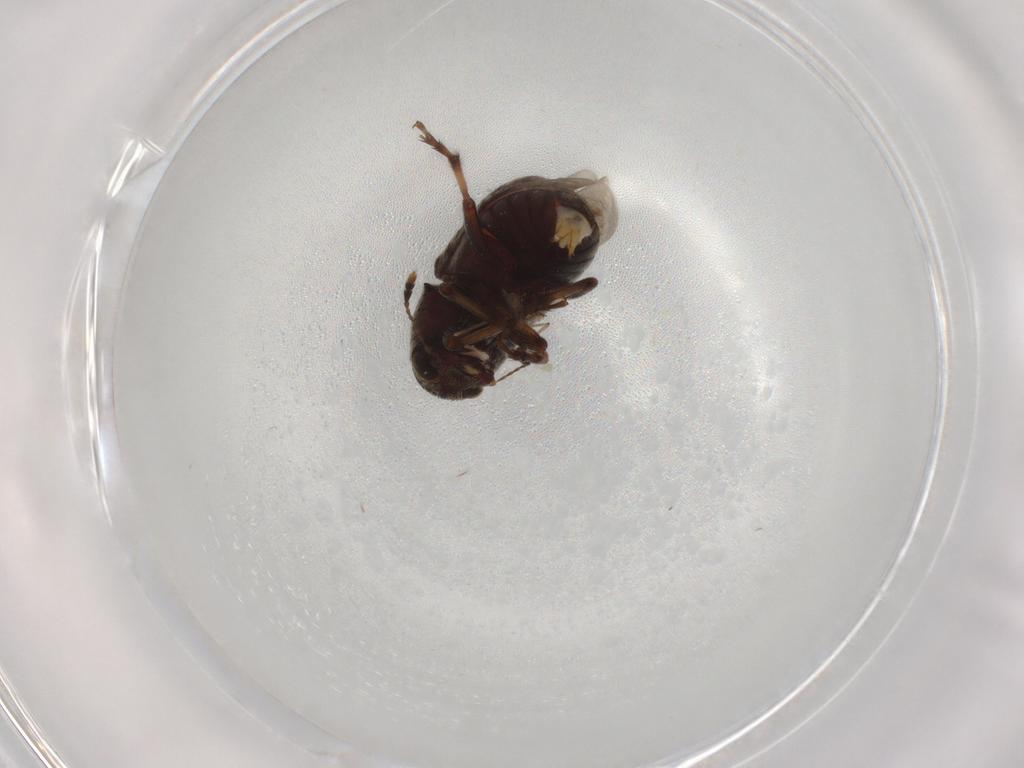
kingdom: Animalia
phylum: Arthropoda
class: Insecta
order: Coleoptera
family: Anthribidae
